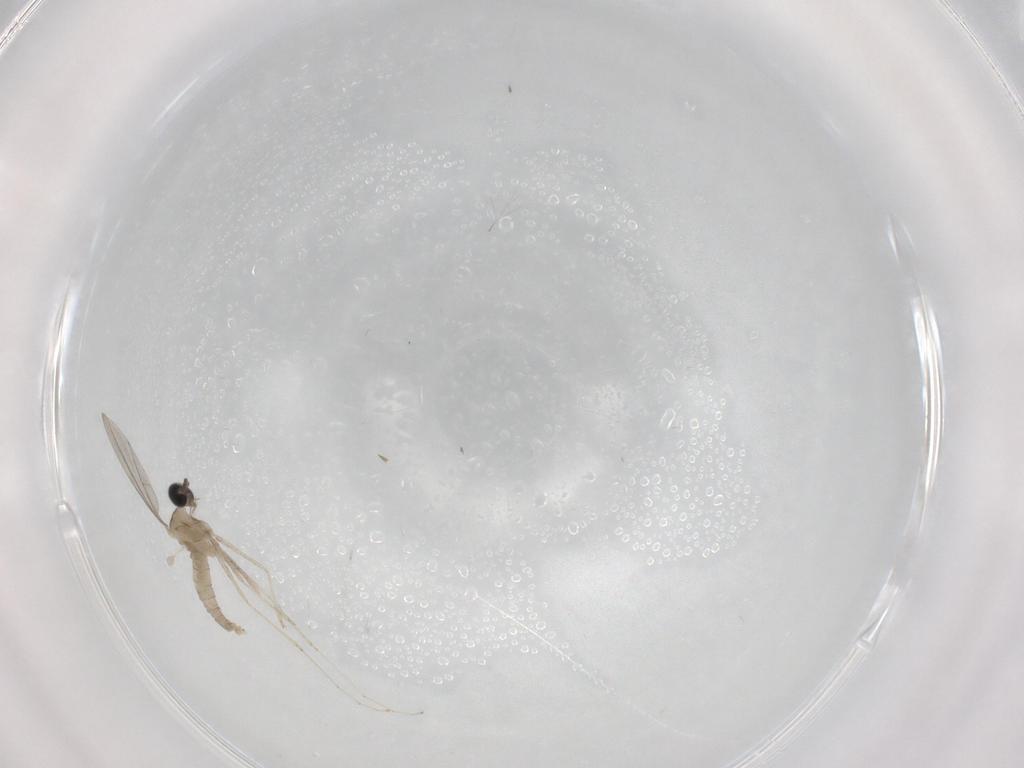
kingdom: Animalia
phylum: Arthropoda
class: Insecta
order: Diptera
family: Cecidomyiidae
